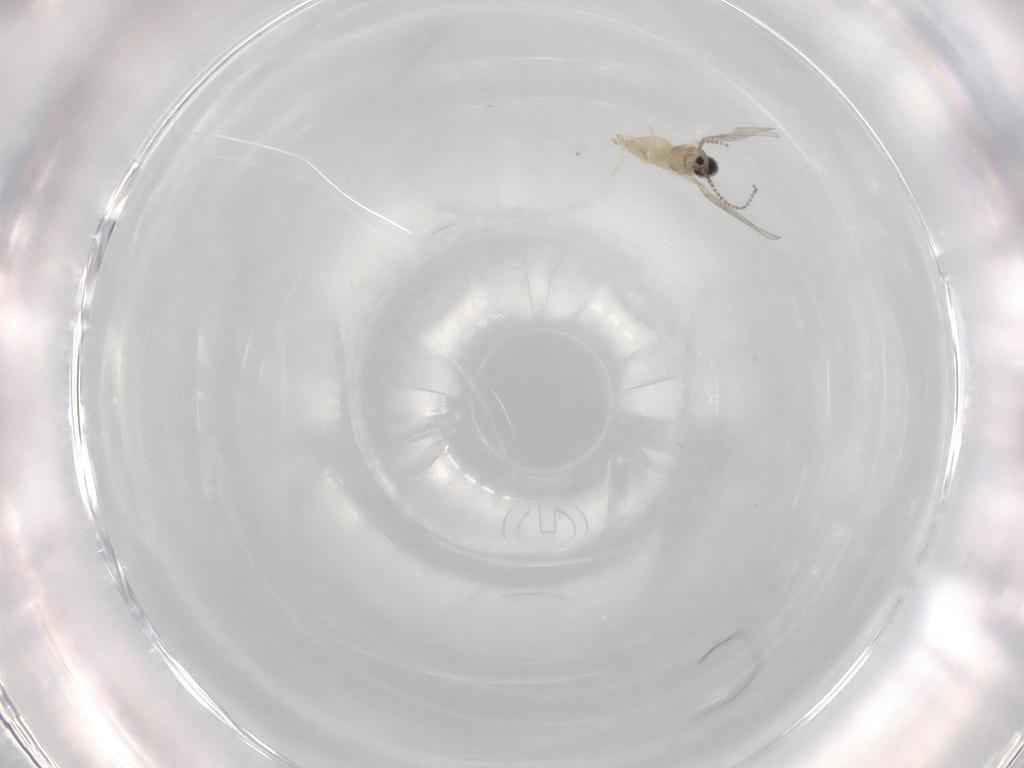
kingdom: Animalia
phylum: Arthropoda
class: Insecta
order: Diptera
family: Cecidomyiidae
